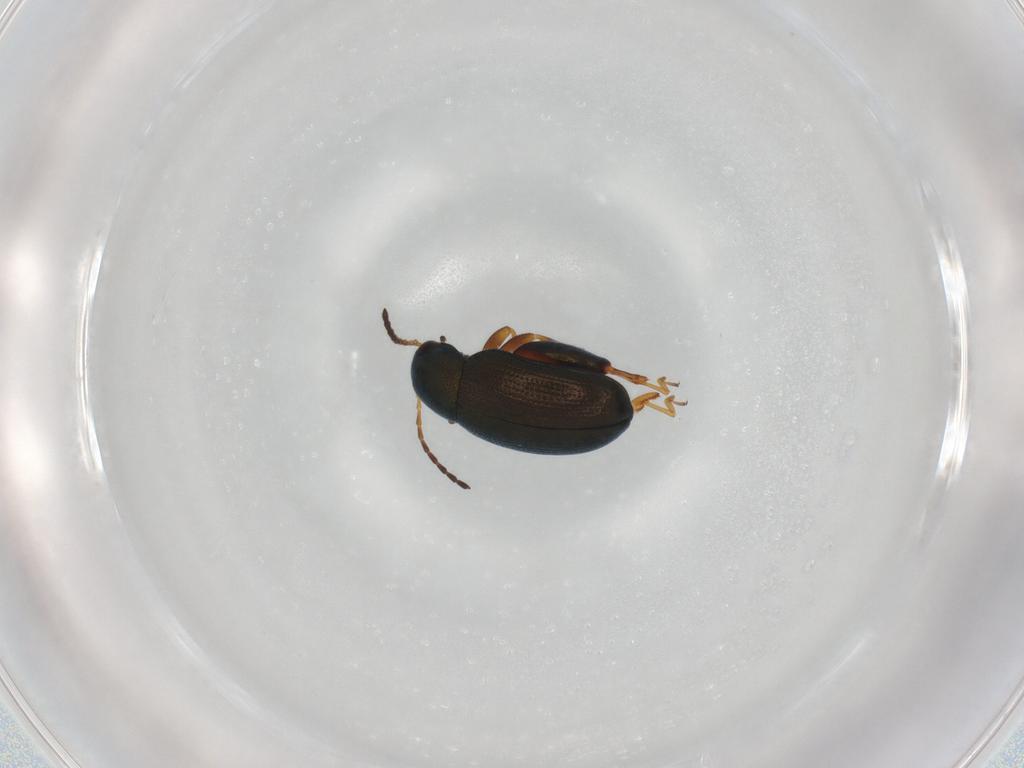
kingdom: Animalia
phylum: Arthropoda
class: Insecta
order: Coleoptera
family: Chrysomelidae
